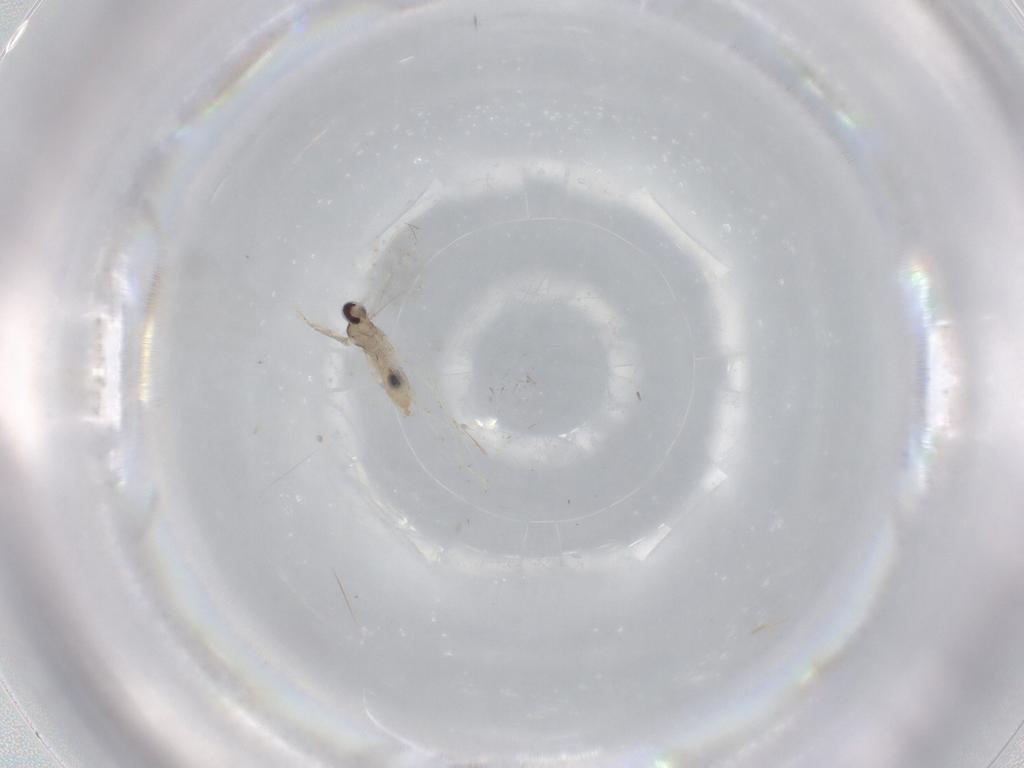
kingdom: Animalia
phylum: Arthropoda
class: Insecta
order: Diptera
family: Cecidomyiidae
